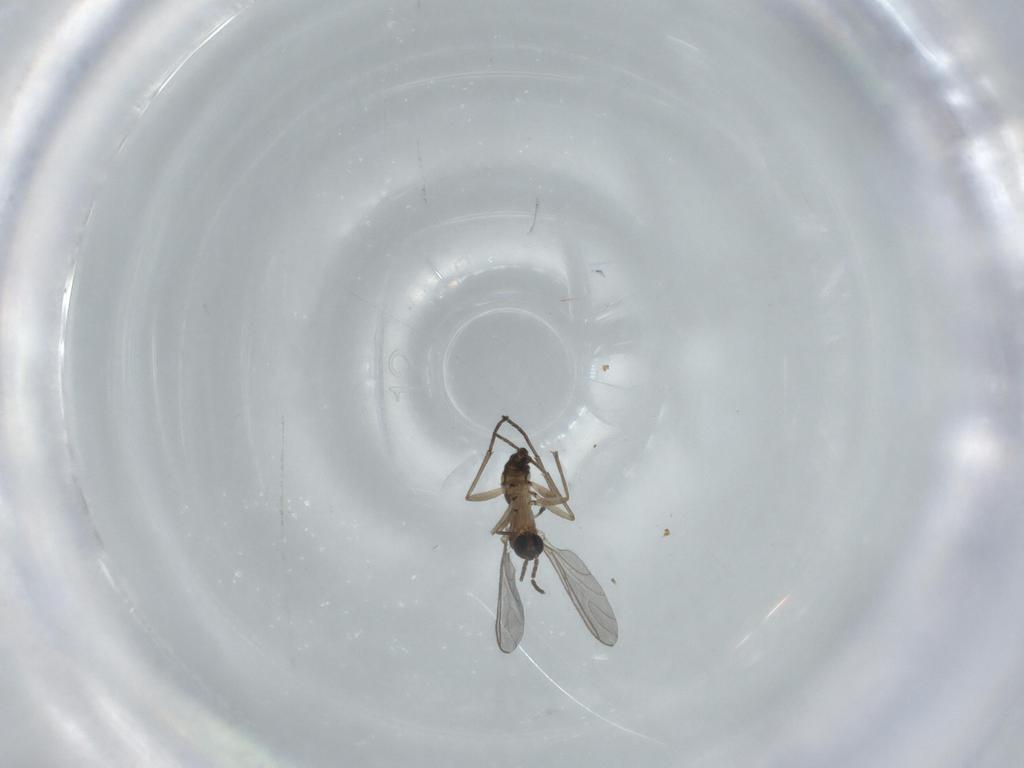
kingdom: Animalia
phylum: Arthropoda
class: Insecta
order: Diptera
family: Sciaridae
